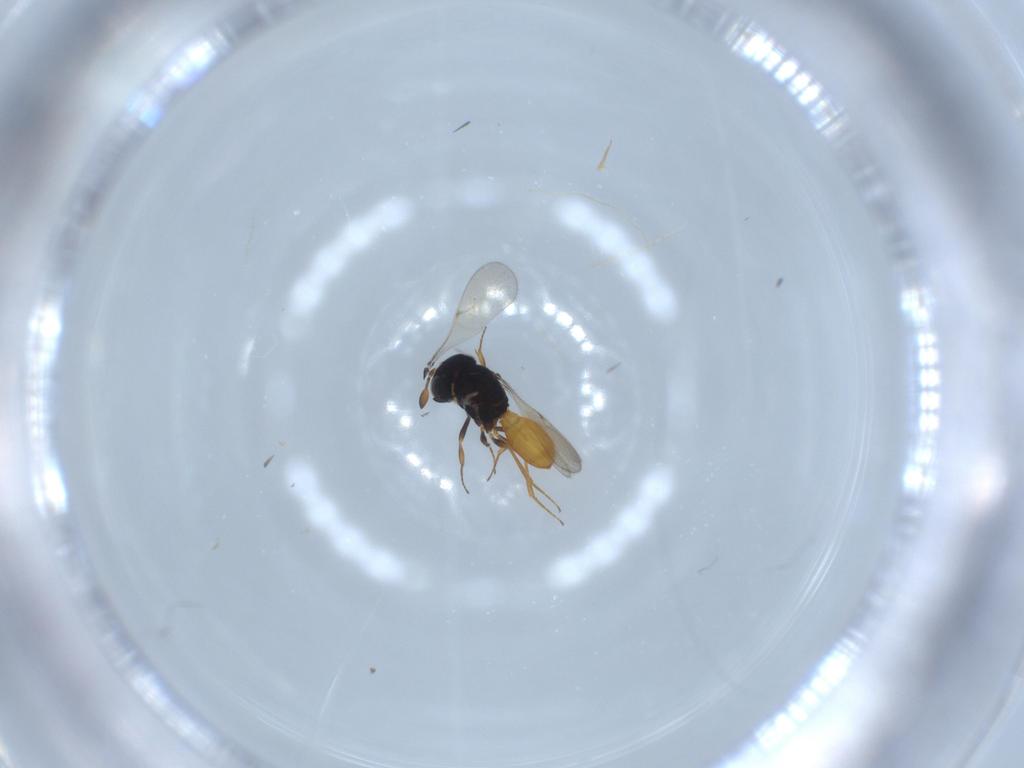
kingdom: Animalia
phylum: Arthropoda
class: Insecta
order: Hymenoptera
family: Scelionidae
